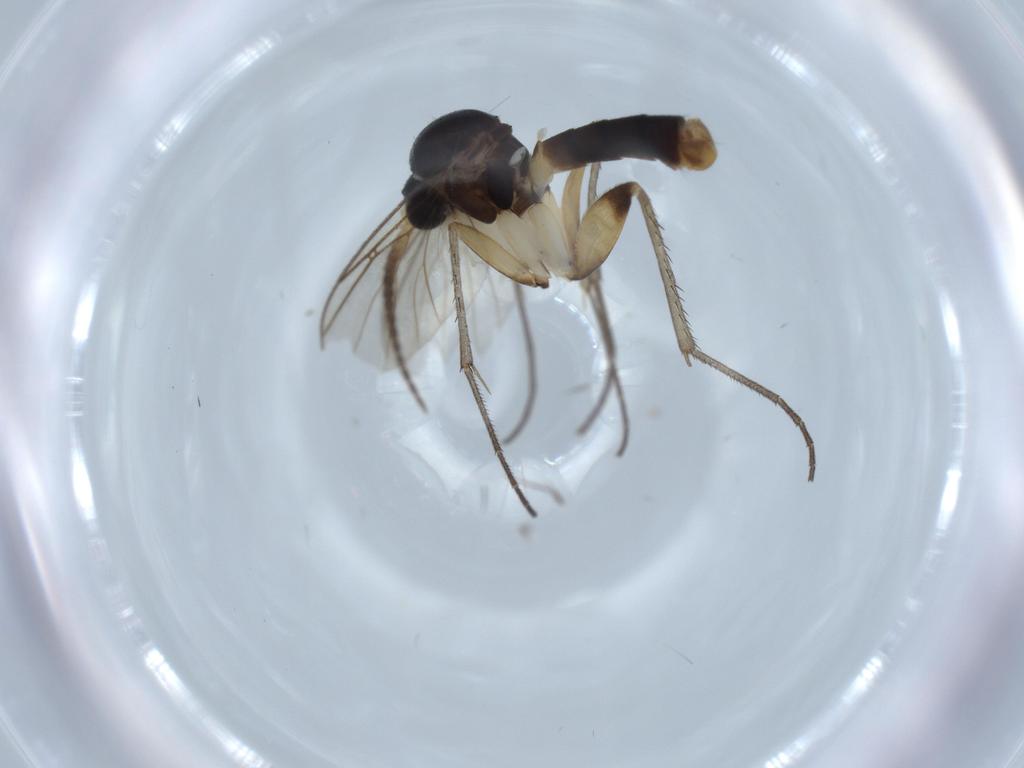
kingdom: Animalia
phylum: Arthropoda
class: Insecta
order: Diptera
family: Mycetophilidae
